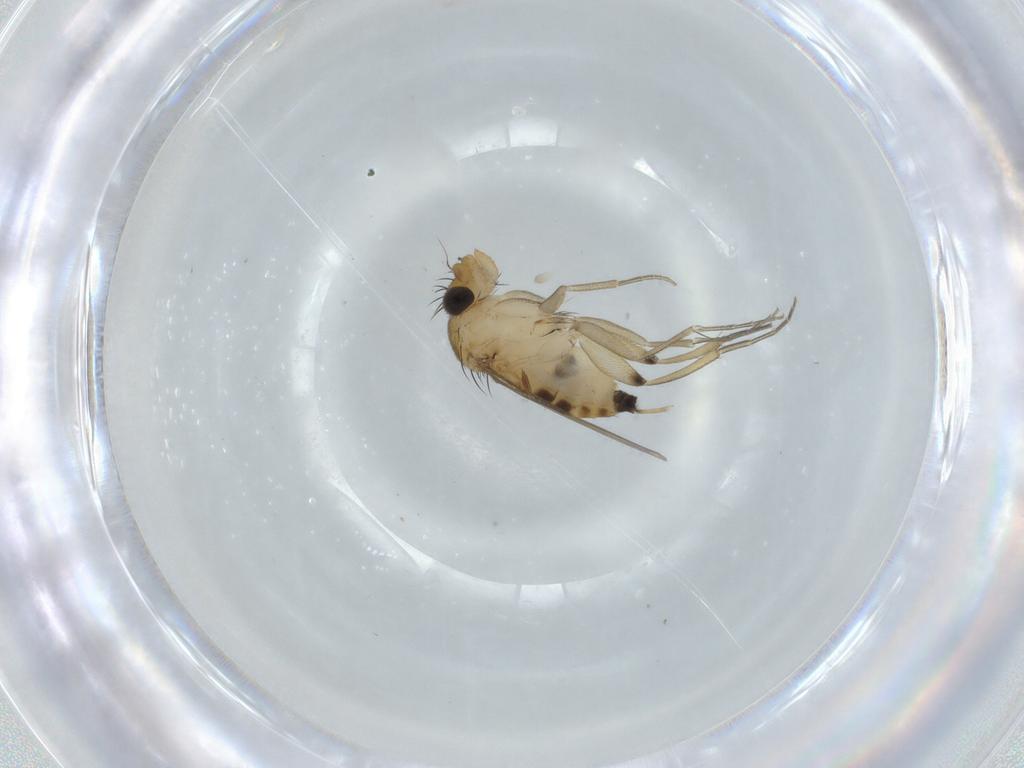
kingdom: Animalia
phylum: Arthropoda
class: Insecta
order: Diptera
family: Phoridae
